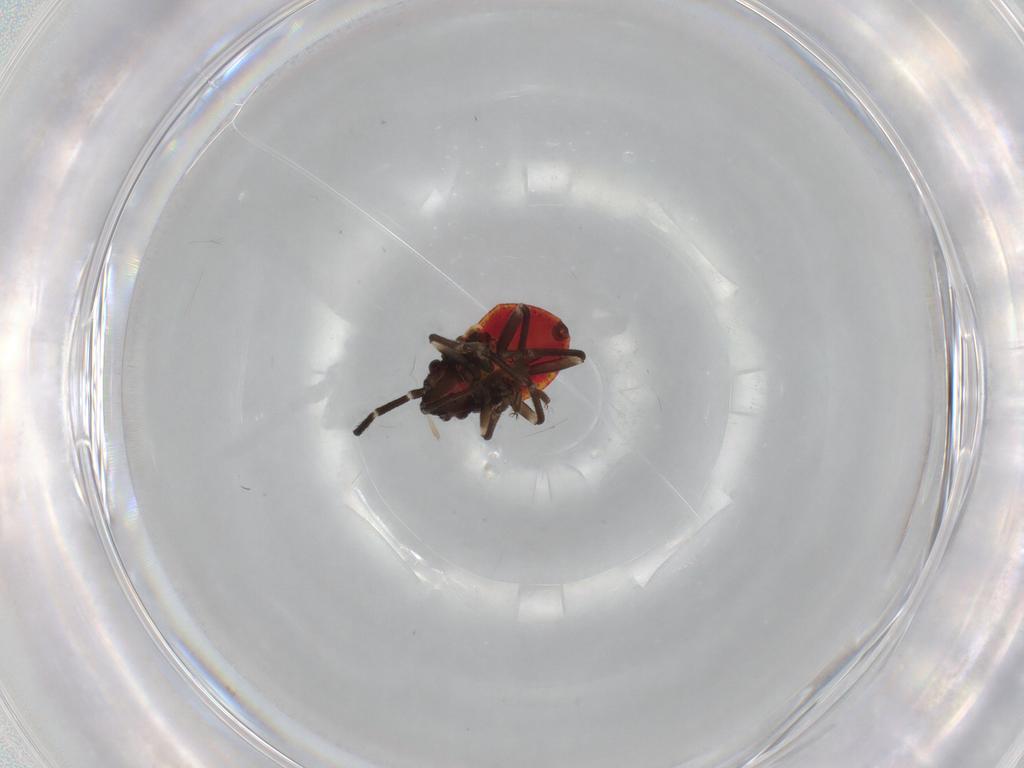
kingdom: Animalia
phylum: Arthropoda
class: Insecta
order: Hemiptera
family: Lygaeidae
